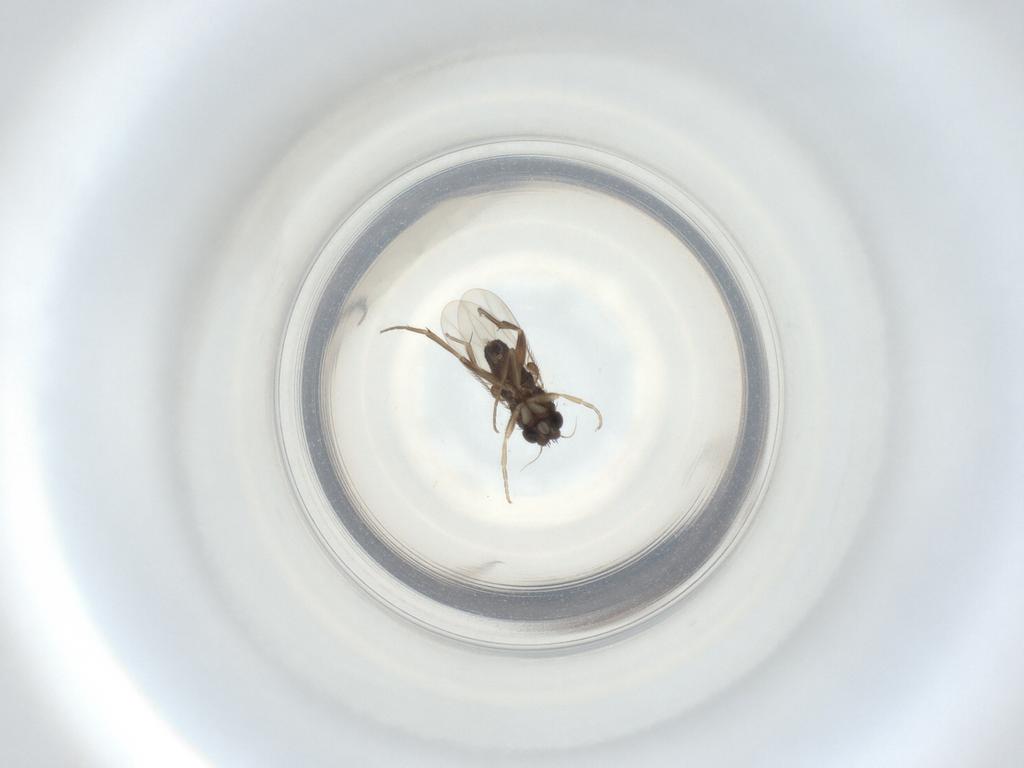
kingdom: Animalia
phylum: Arthropoda
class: Insecta
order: Diptera
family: Phoridae
